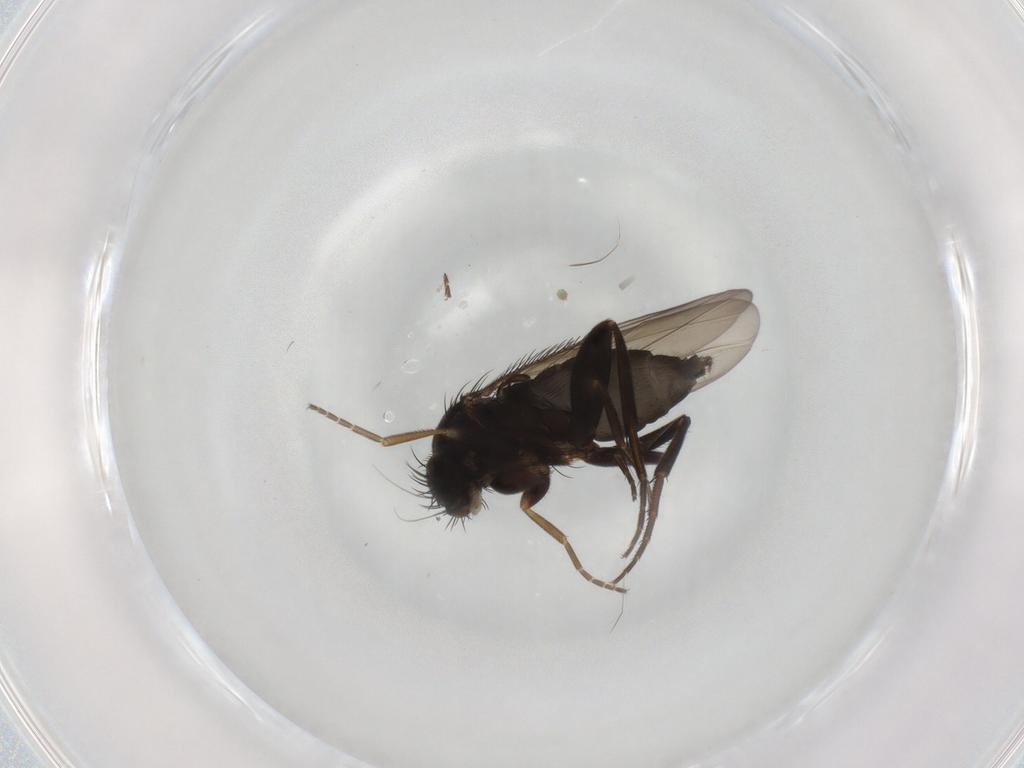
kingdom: Animalia
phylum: Arthropoda
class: Insecta
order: Diptera
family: Phoridae
